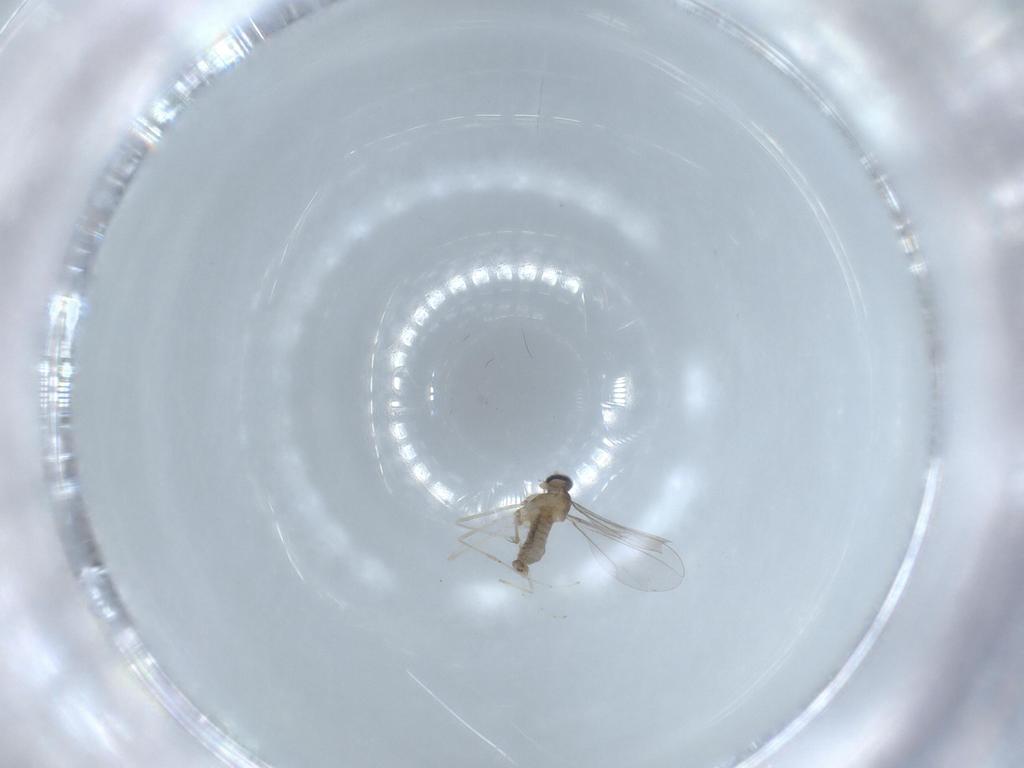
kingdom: Animalia
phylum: Arthropoda
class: Insecta
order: Diptera
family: Cecidomyiidae
